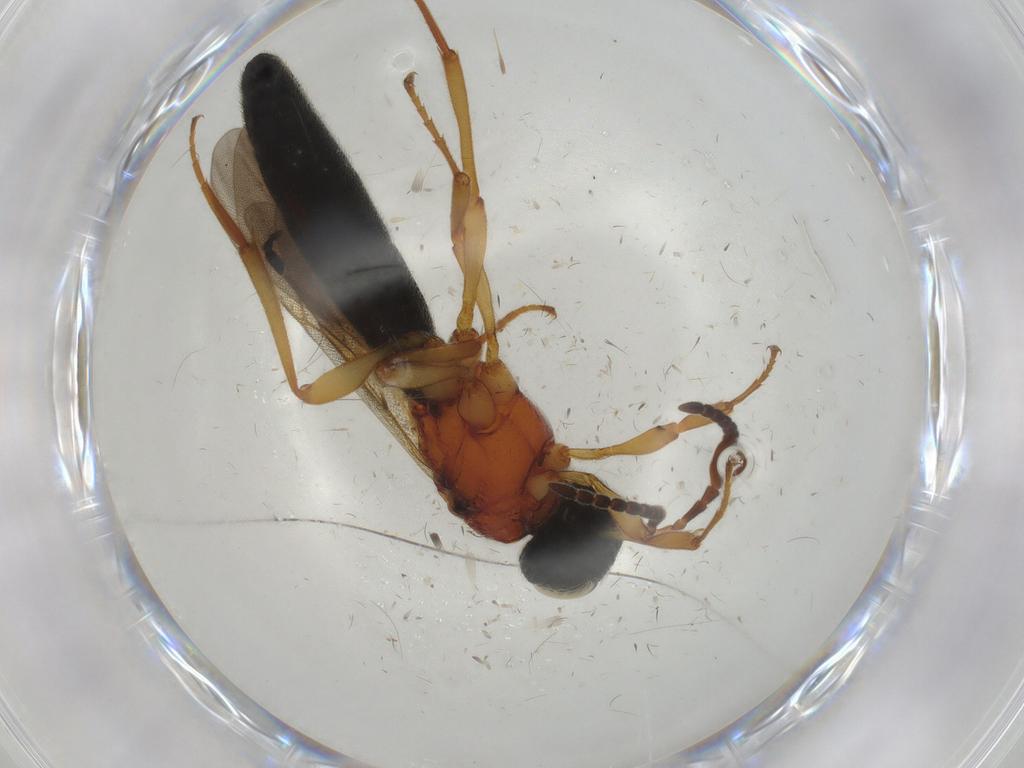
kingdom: Animalia
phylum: Arthropoda
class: Insecta
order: Hymenoptera
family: Scelionidae
